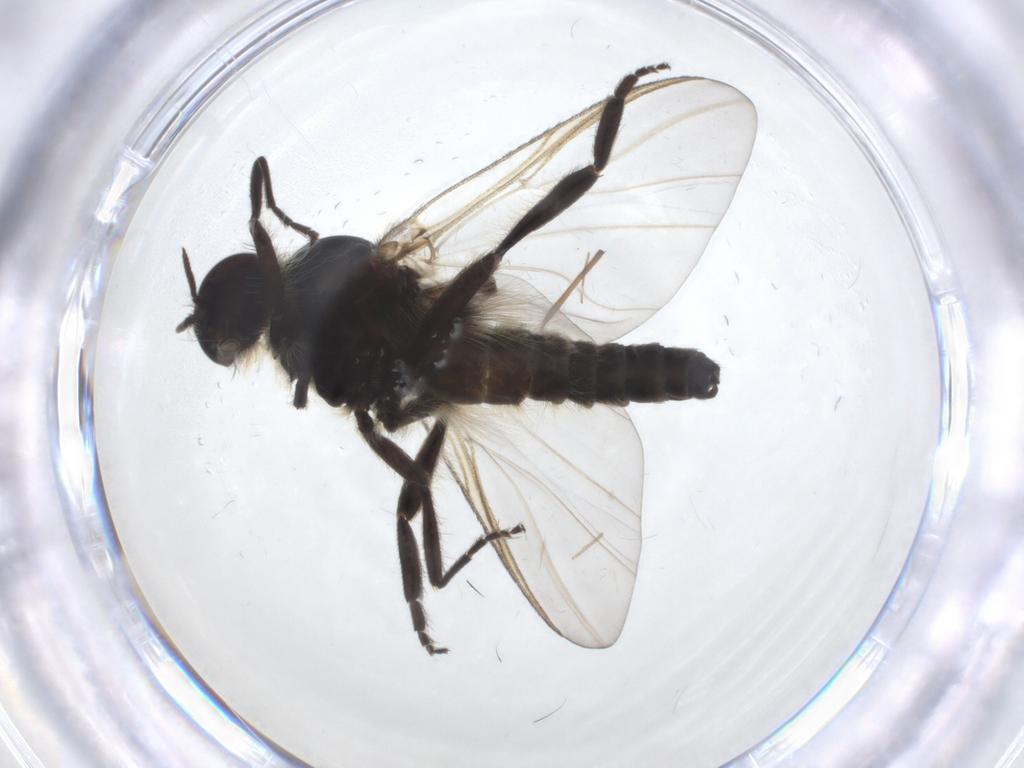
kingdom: Animalia
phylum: Arthropoda
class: Insecta
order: Diptera
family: Chironomidae
